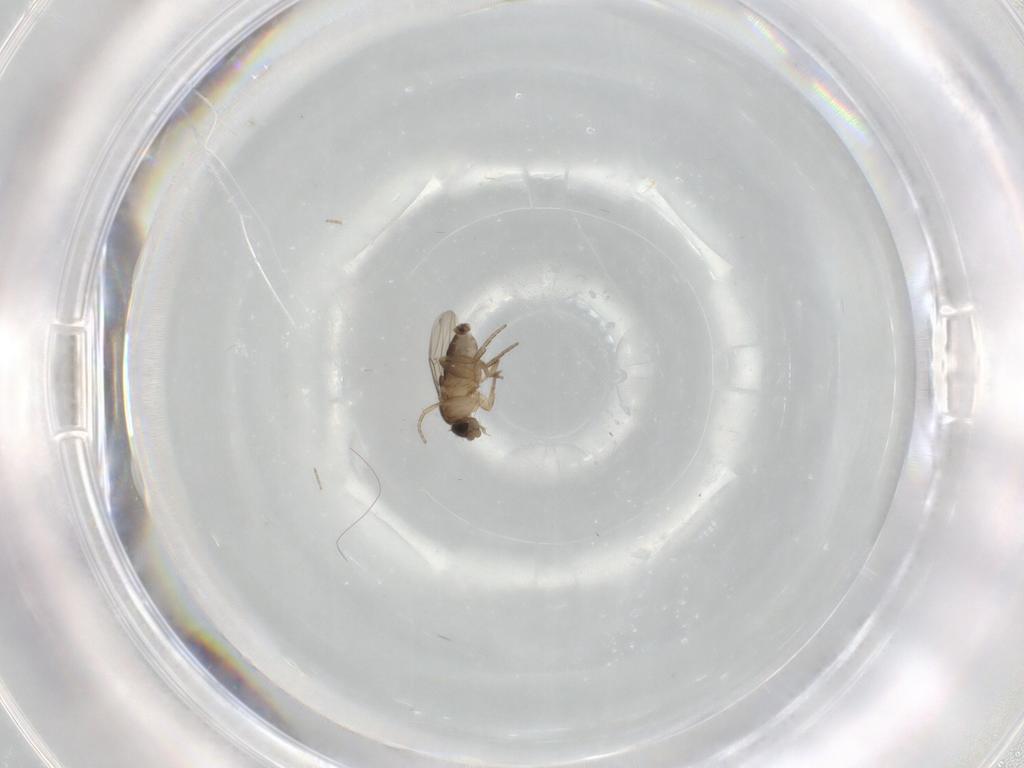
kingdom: Animalia
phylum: Arthropoda
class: Insecta
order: Diptera
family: Phoridae
